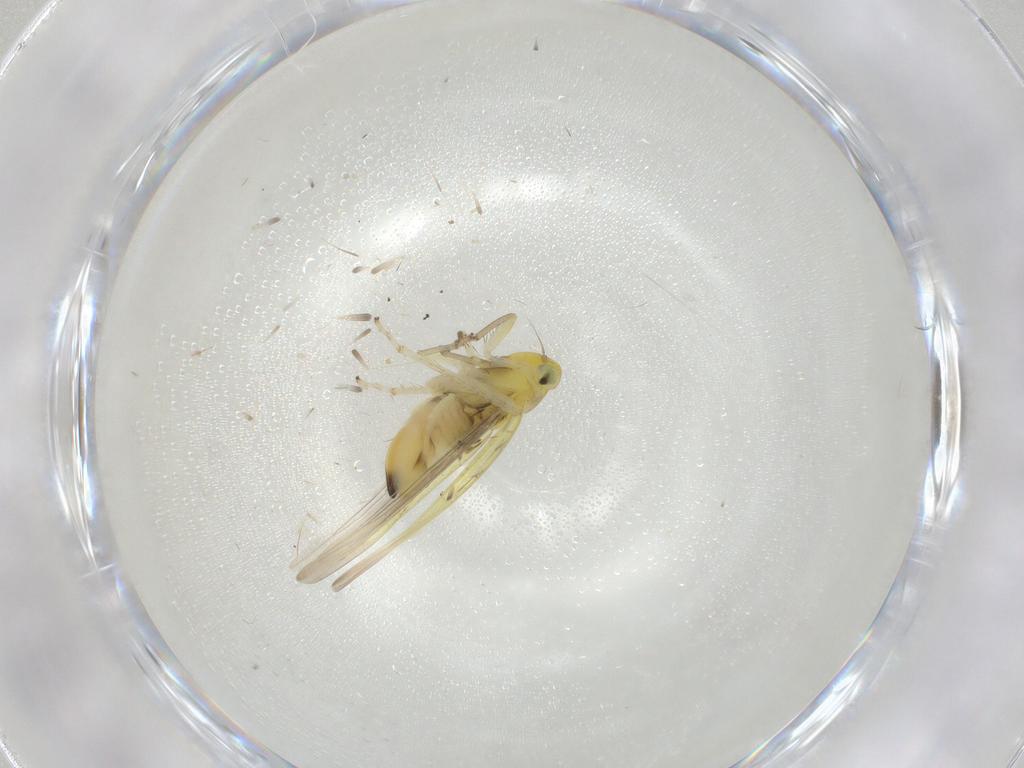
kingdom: Animalia
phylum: Arthropoda
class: Insecta
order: Hemiptera
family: Cicadellidae
